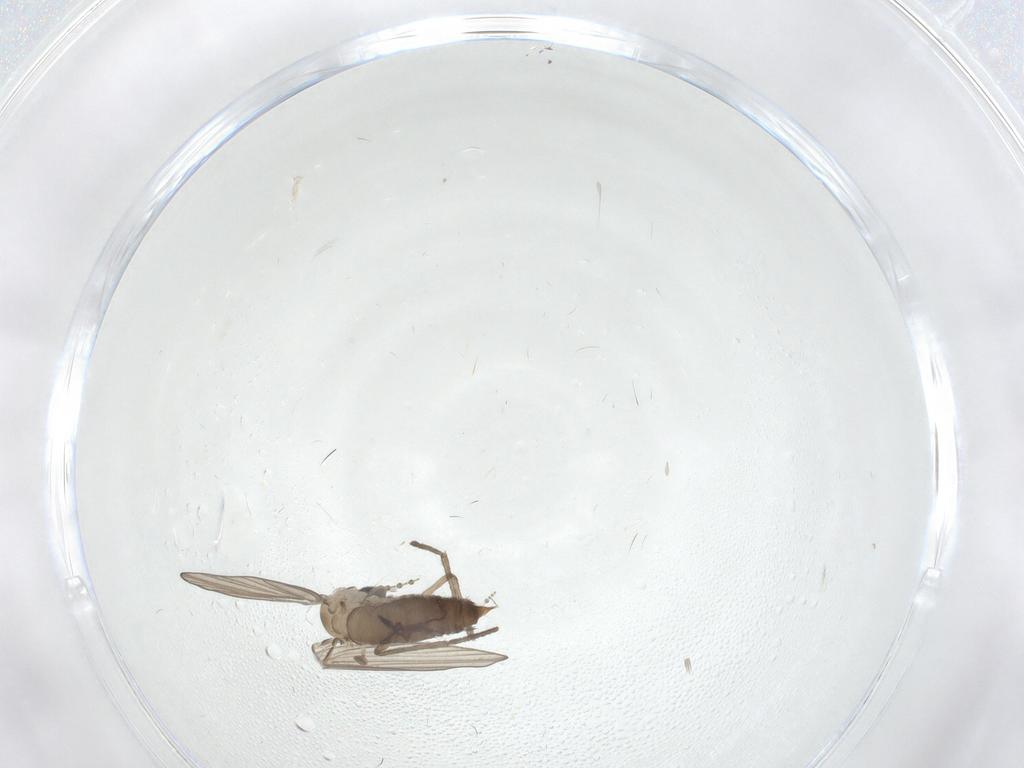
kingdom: Animalia
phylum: Arthropoda
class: Insecta
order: Diptera
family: Psychodidae
